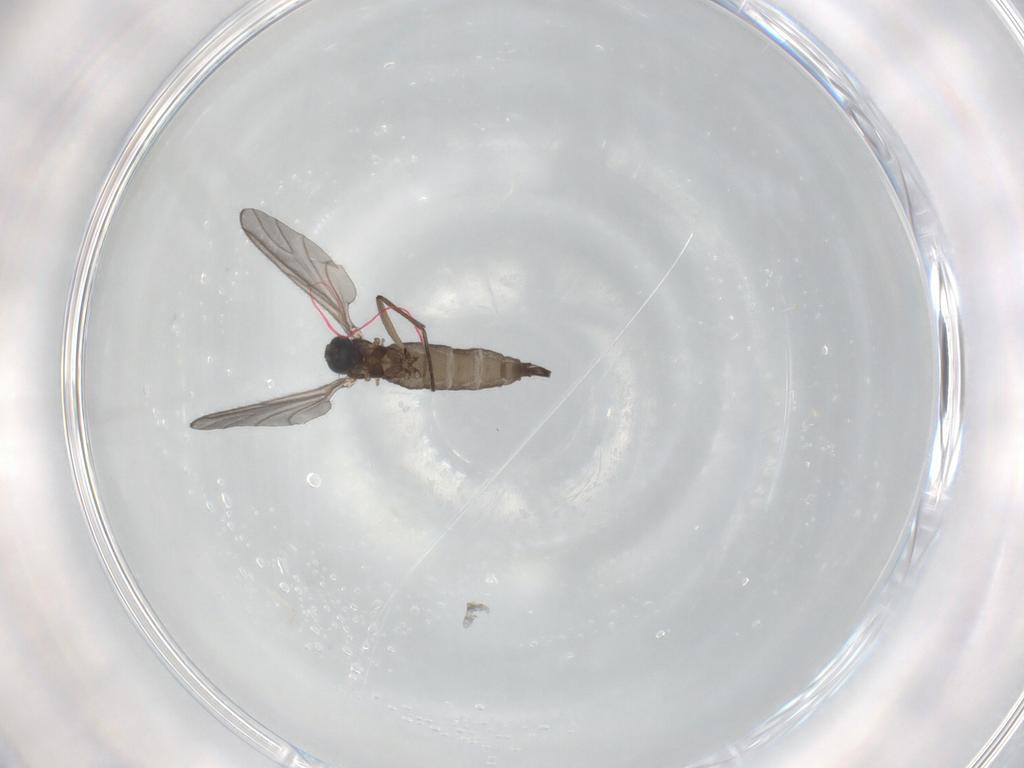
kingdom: Animalia
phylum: Arthropoda
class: Insecta
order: Diptera
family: Sciaridae
